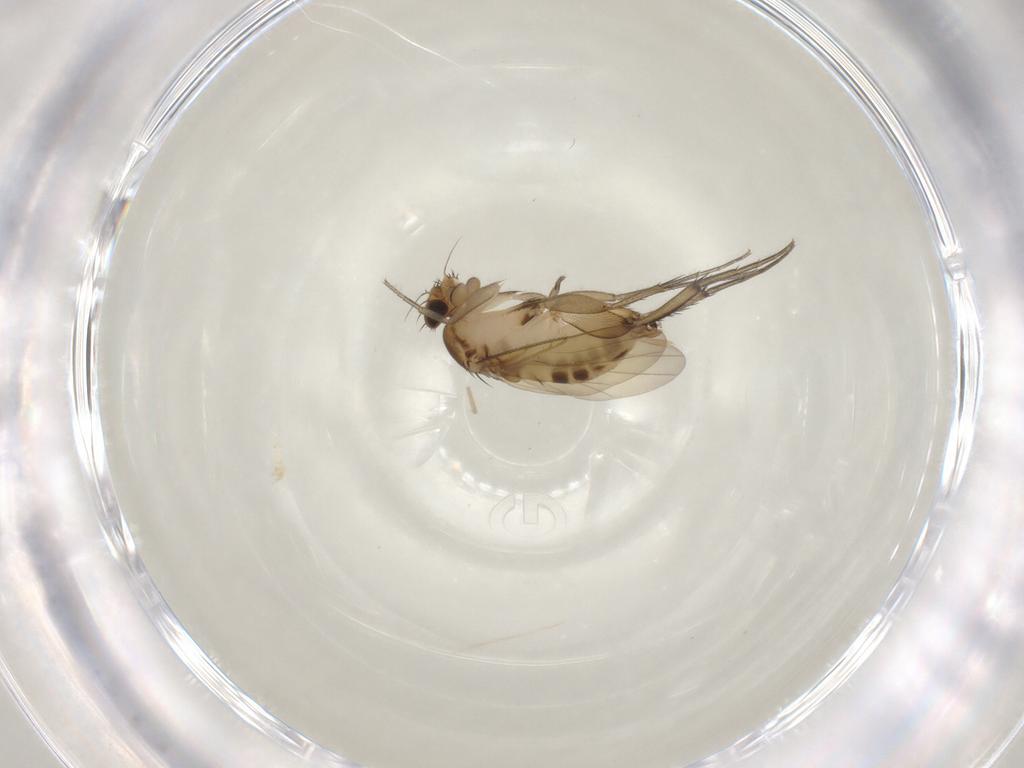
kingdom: Animalia
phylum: Arthropoda
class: Insecta
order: Diptera
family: Phoridae
